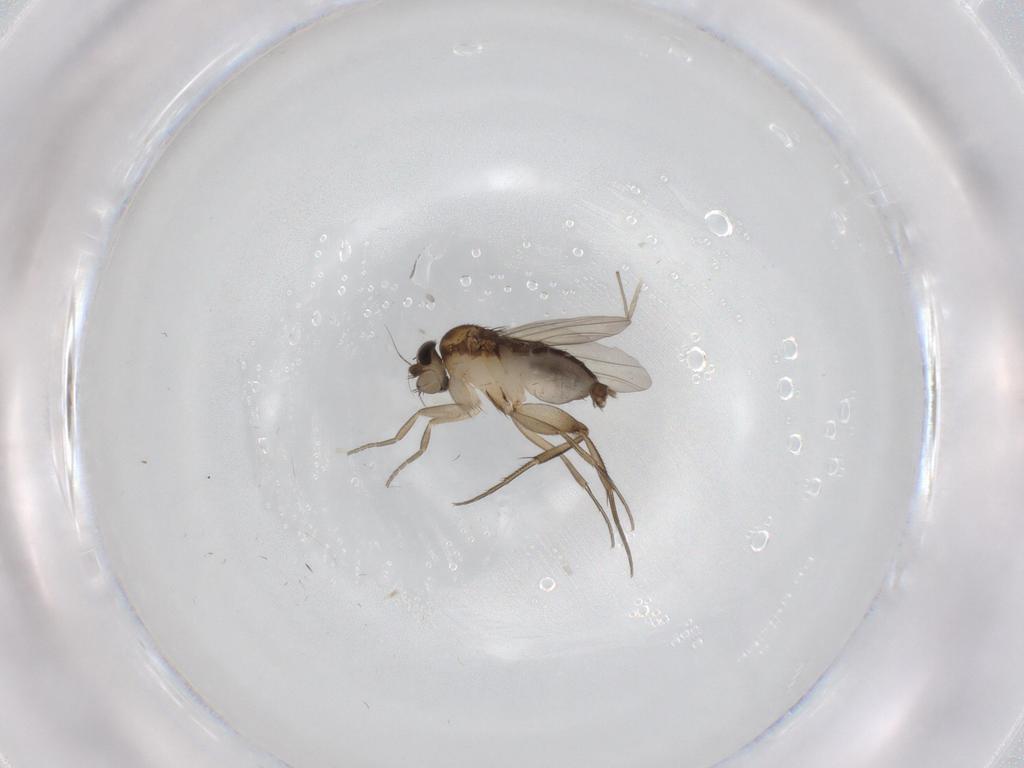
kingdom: Animalia
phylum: Arthropoda
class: Insecta
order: Diptera
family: Phoridae
